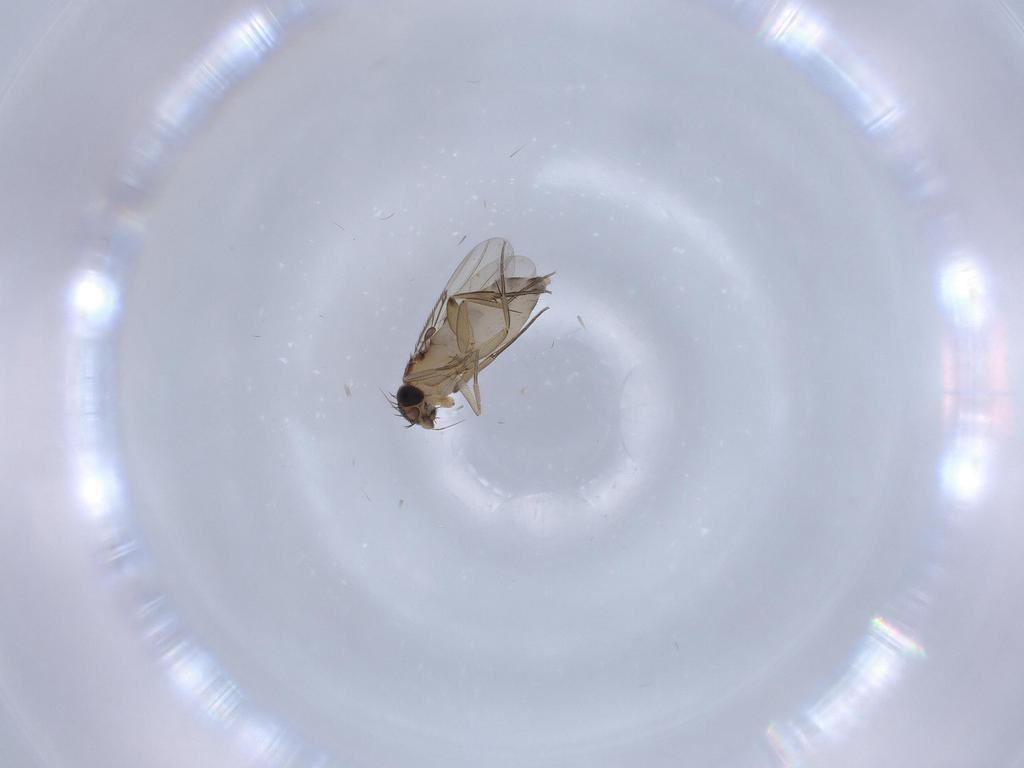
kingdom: Animalia
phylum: Arthropoda
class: Insecta
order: Diptera
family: Phoridae
